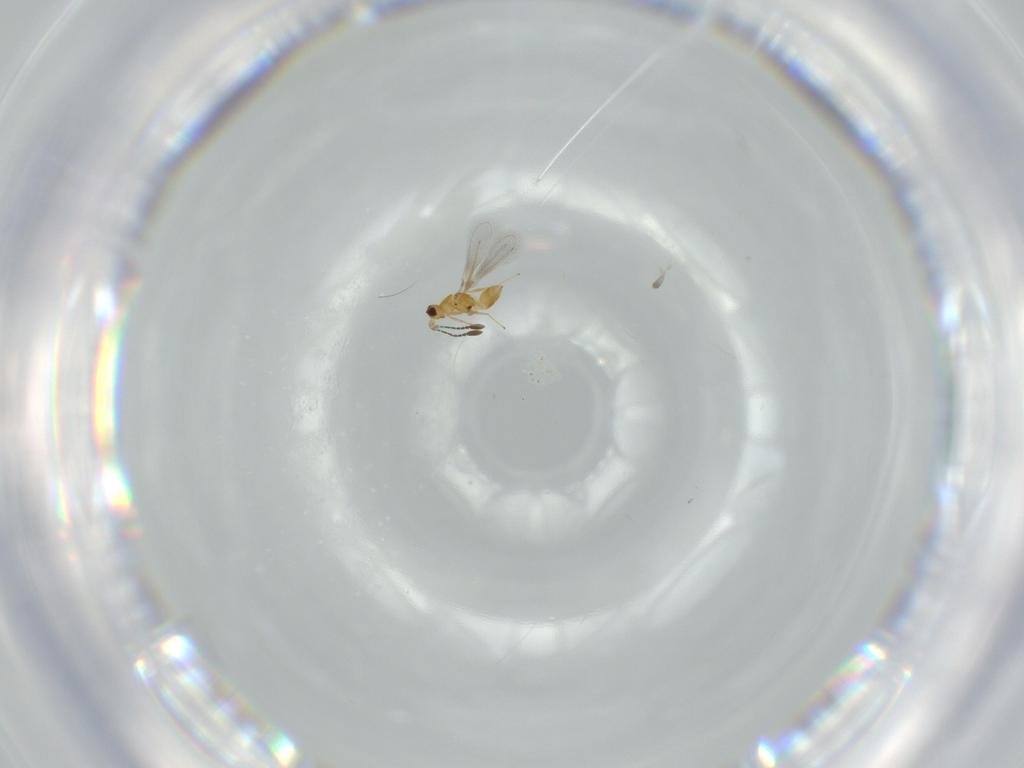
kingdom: Animalia
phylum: Arthropoda
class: Insecta
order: Hymenoptera
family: Encyrtidae
